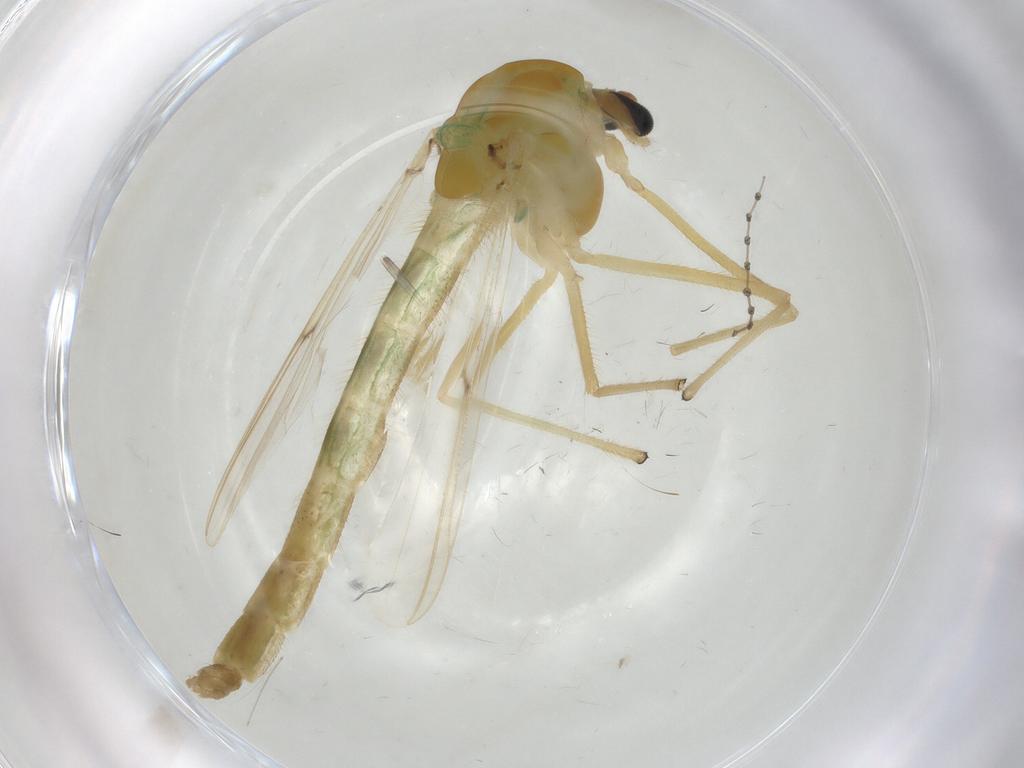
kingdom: Animalia
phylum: Arthropoda
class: Insecta
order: Diptera
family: Chironomidae
